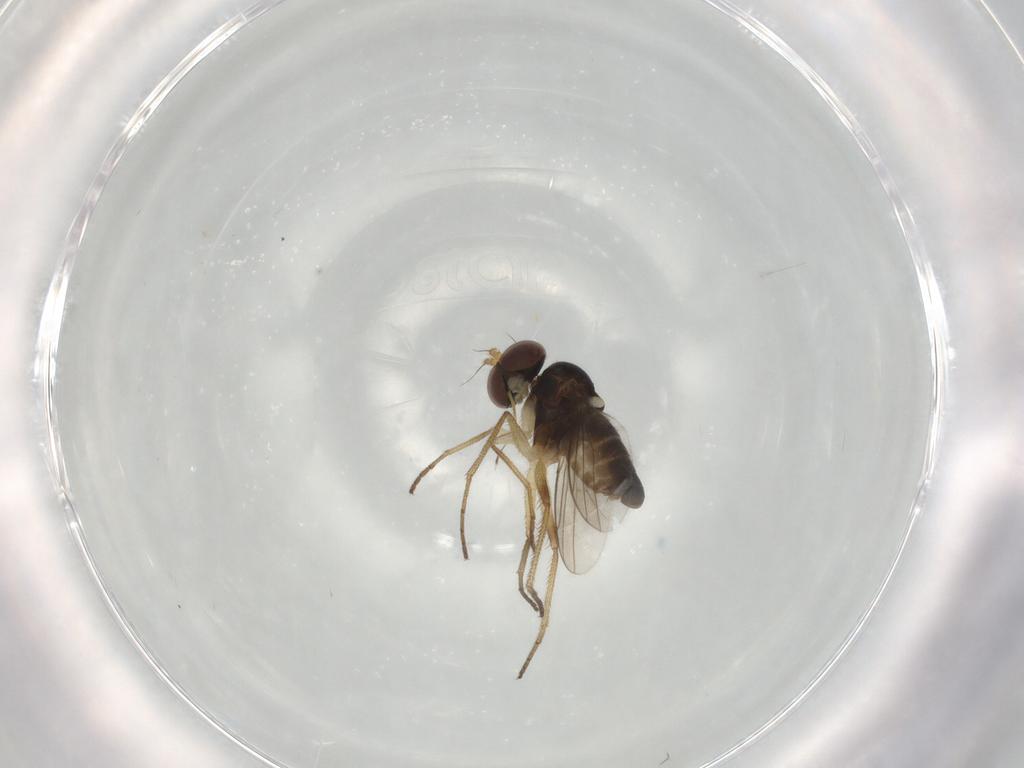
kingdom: Animalia
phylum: Arthropoda
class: Insecta
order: Diptera
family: Dolichopodidae
